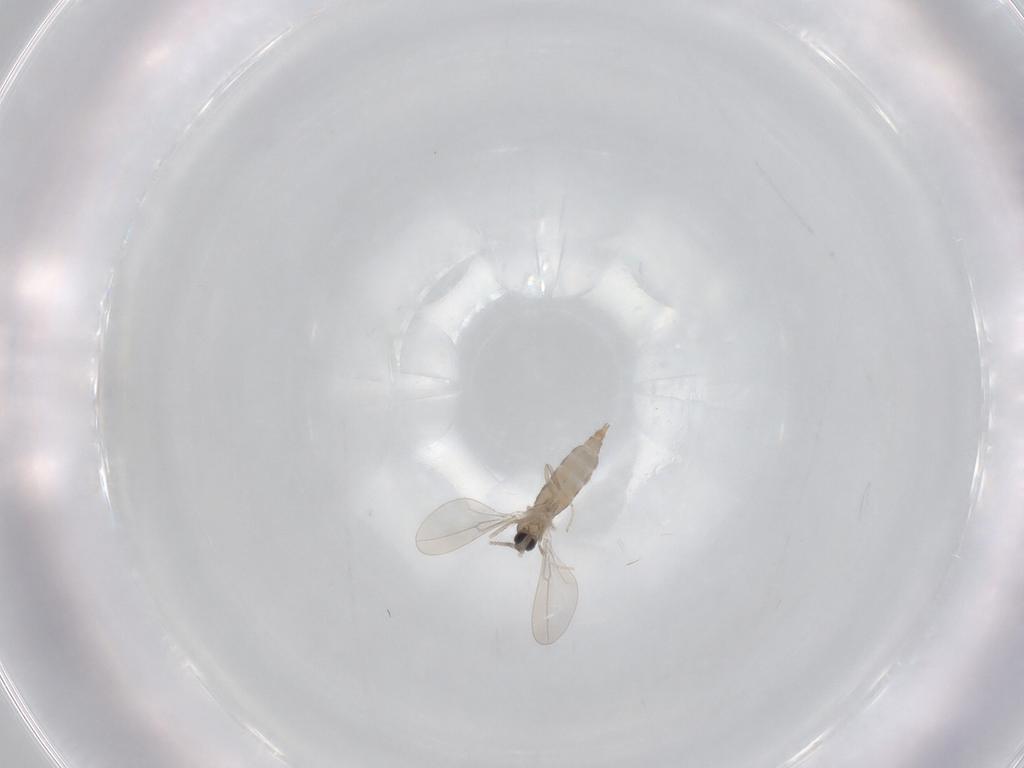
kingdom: Animalia
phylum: Arthropoda
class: Insecta
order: Diptera
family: Cecidomyiidae
